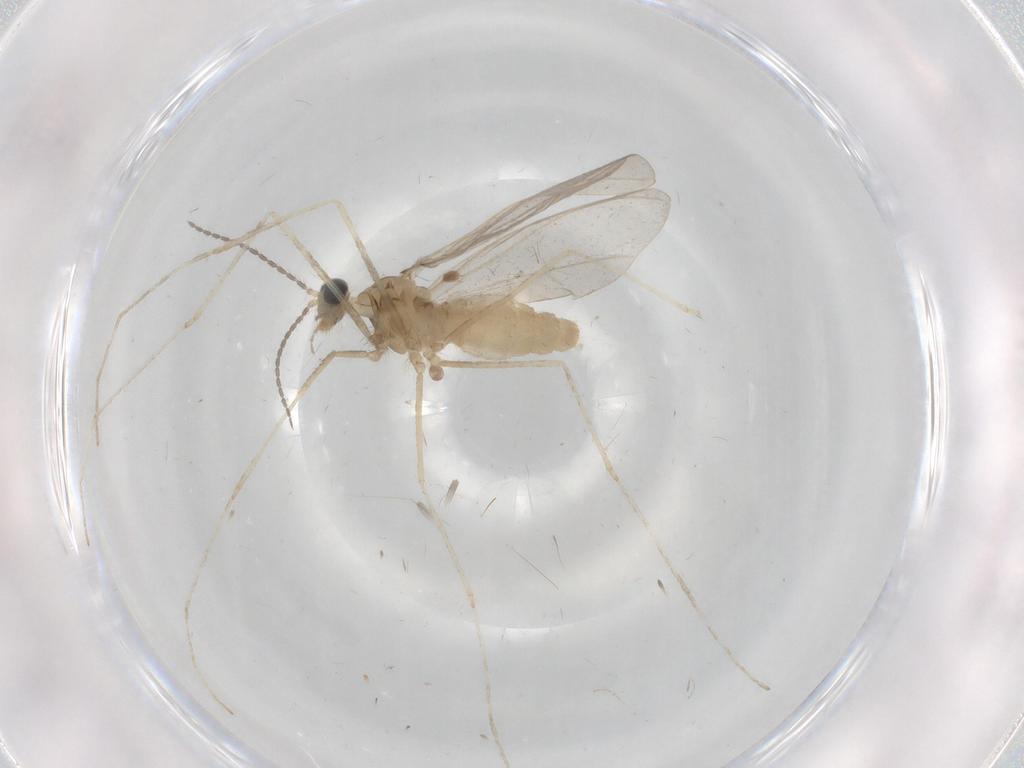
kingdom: Animalia
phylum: Arthropoda
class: Insecta
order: Diptera
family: Cecidomyiidae
